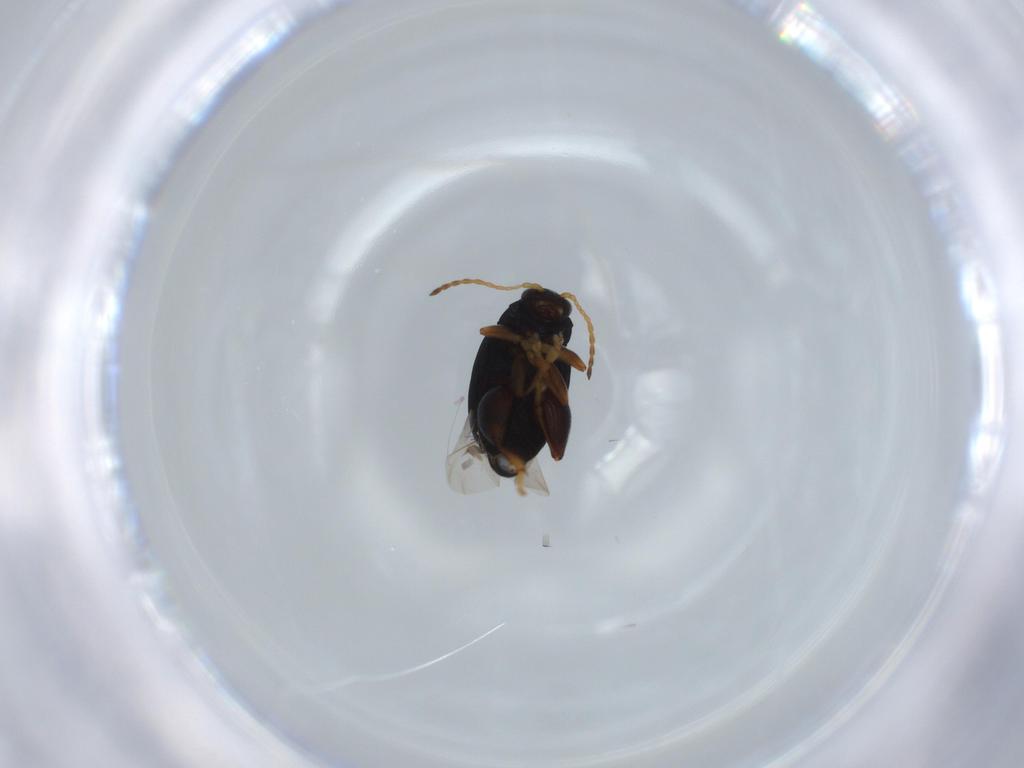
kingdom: Animalia
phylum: Arthropoda
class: Insecta
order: Coleoptera
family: Chrysomelidae
